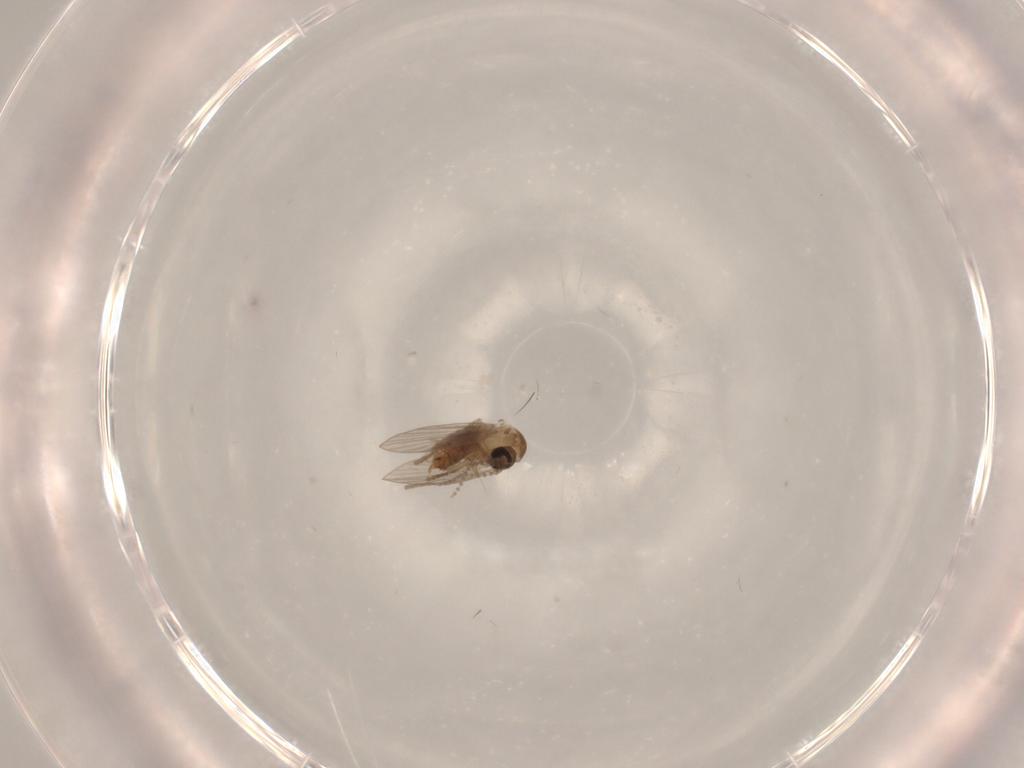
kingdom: Animalia
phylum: Arthropoda
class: Insecta
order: Diptera
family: Psychodidae
